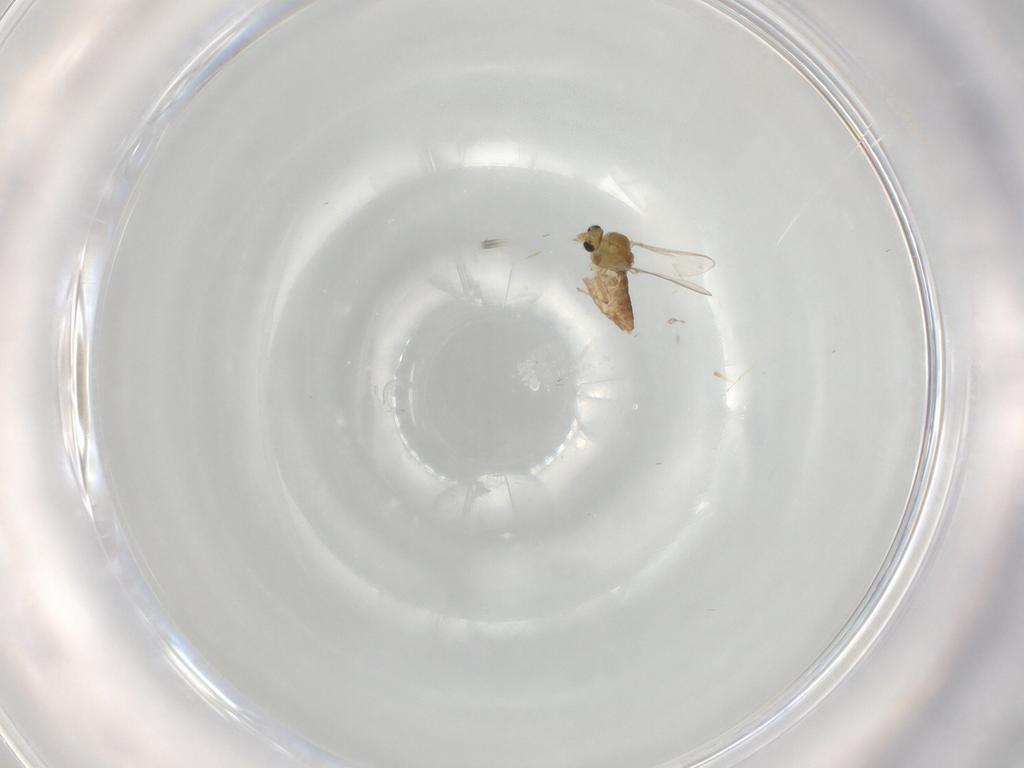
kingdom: Animalia
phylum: Arthropoda
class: Insecta
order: Diptera
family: Chironomidae
